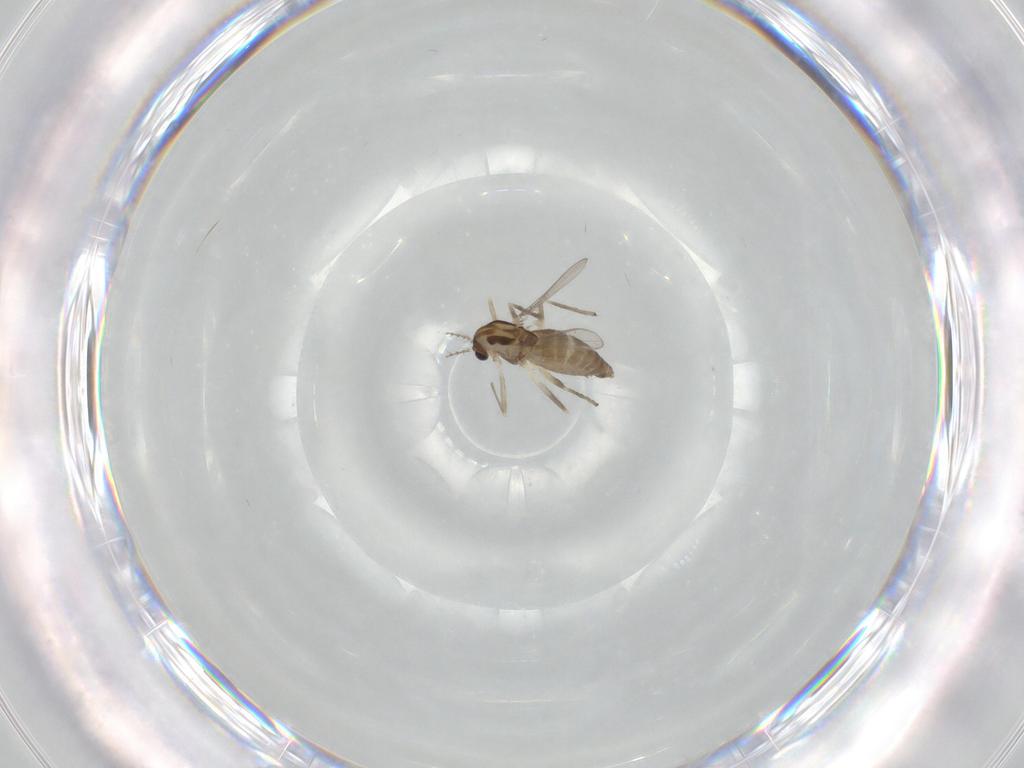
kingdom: Animalia
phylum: Arthropoda
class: Insecta
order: Diptera
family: Chironomidae
